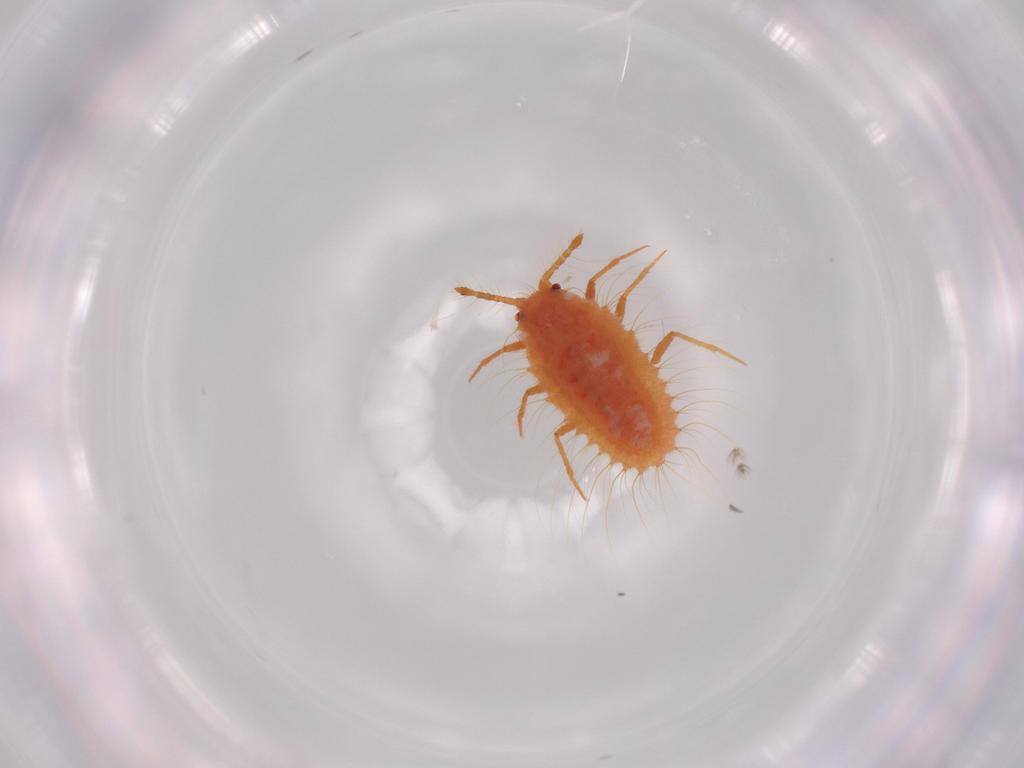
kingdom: Animalia
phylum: Arthropoda
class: Insecta
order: Hemiptera
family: Coccoidea_incertae_sedis
